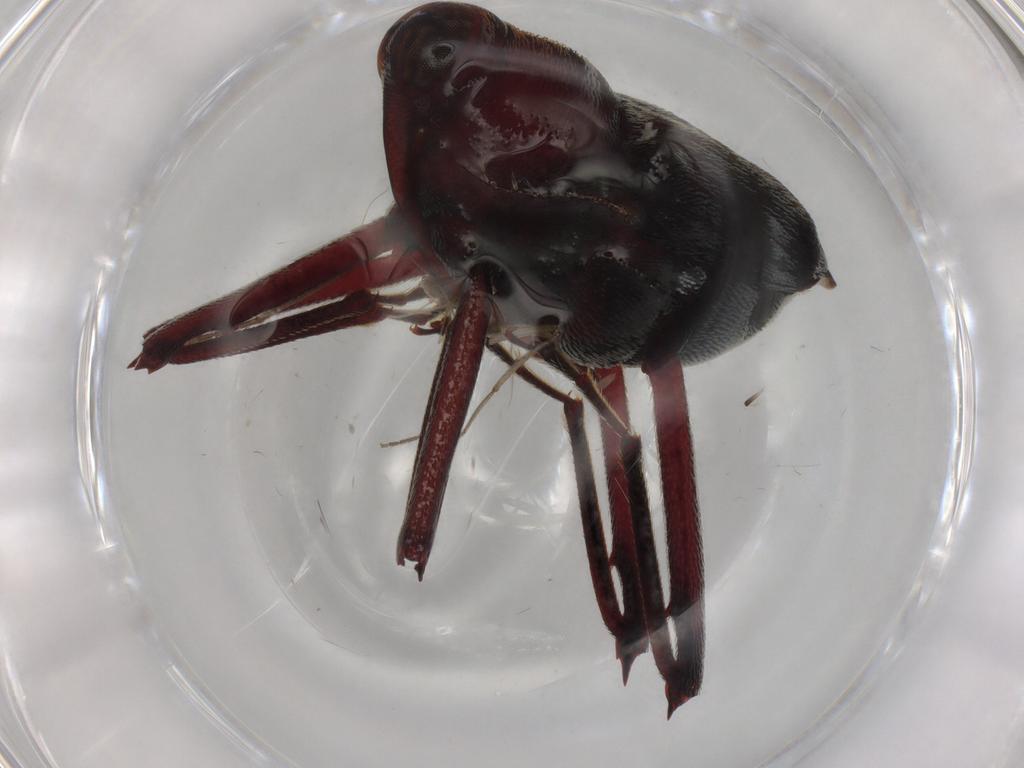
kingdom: Animalia
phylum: Arthropoda
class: Insecta
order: Coleoptera
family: Curculionidae
